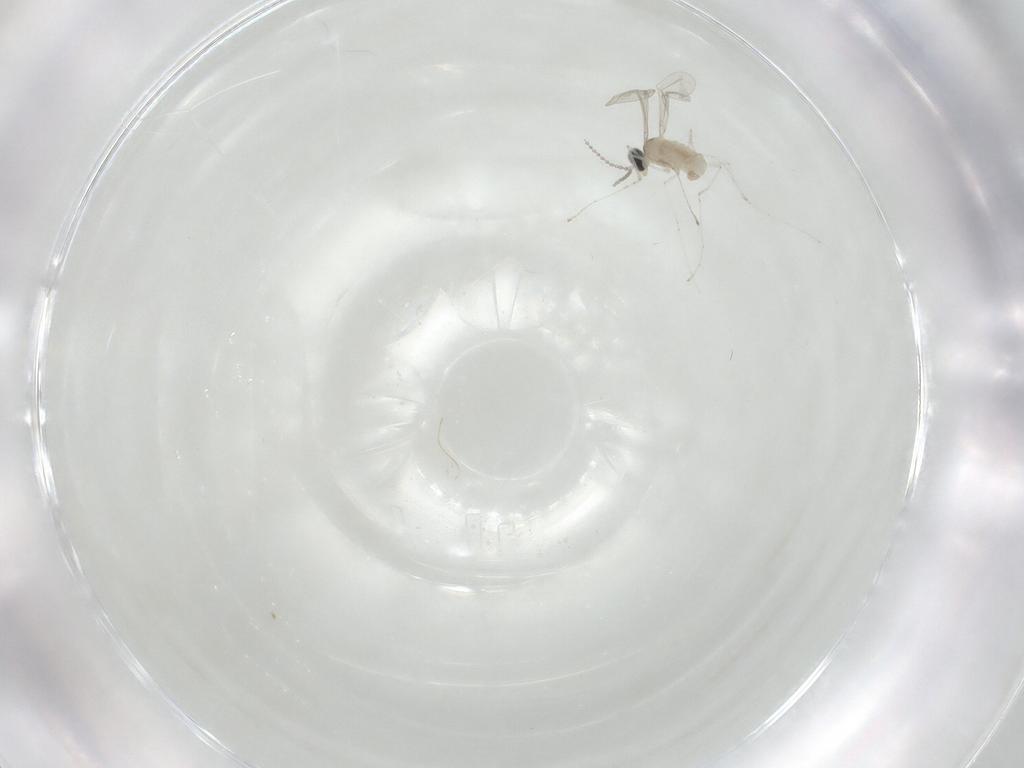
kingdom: Animalia
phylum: Arthropoda
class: Insecta
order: Diptera
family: Cecidomyiidae
